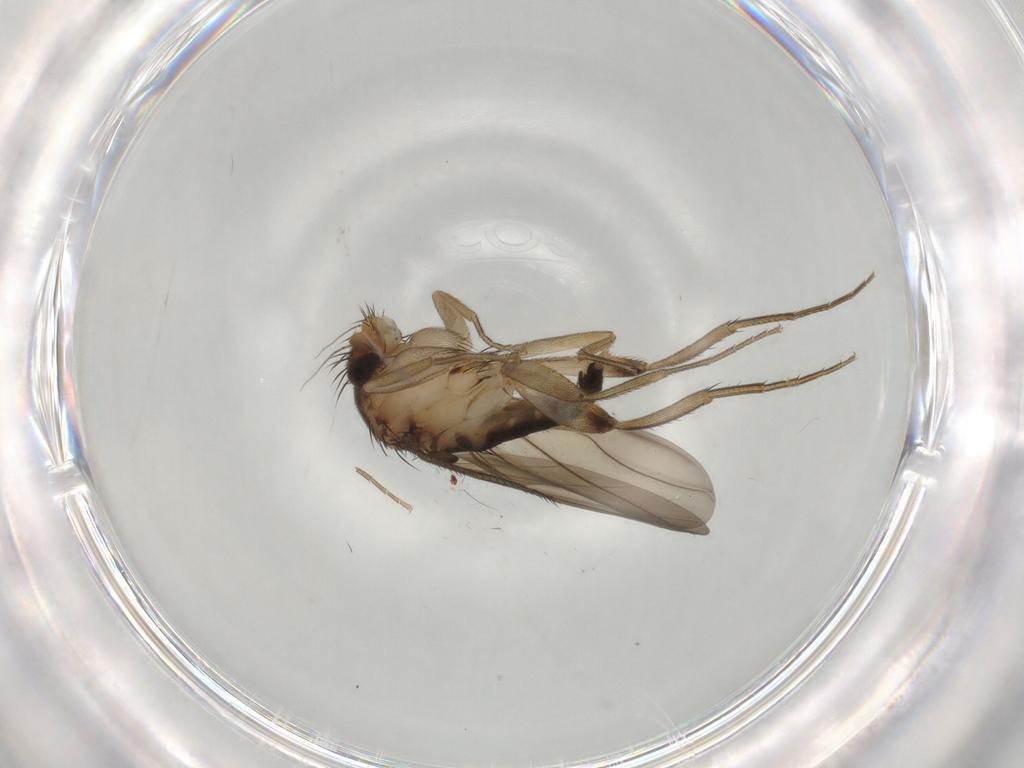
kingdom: Animalia
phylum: Arthropoda
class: Insecta
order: Diptera
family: Phoridae
